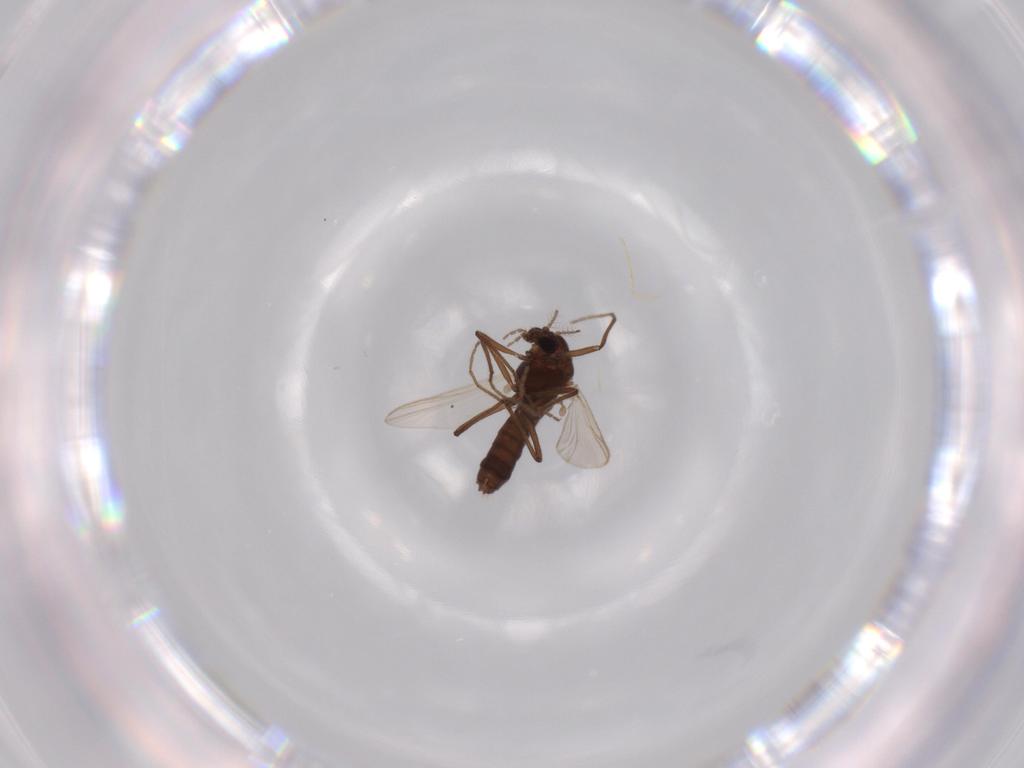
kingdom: Animalia
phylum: Arthropoda
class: Insecta
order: Diptera
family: Chironomidae
